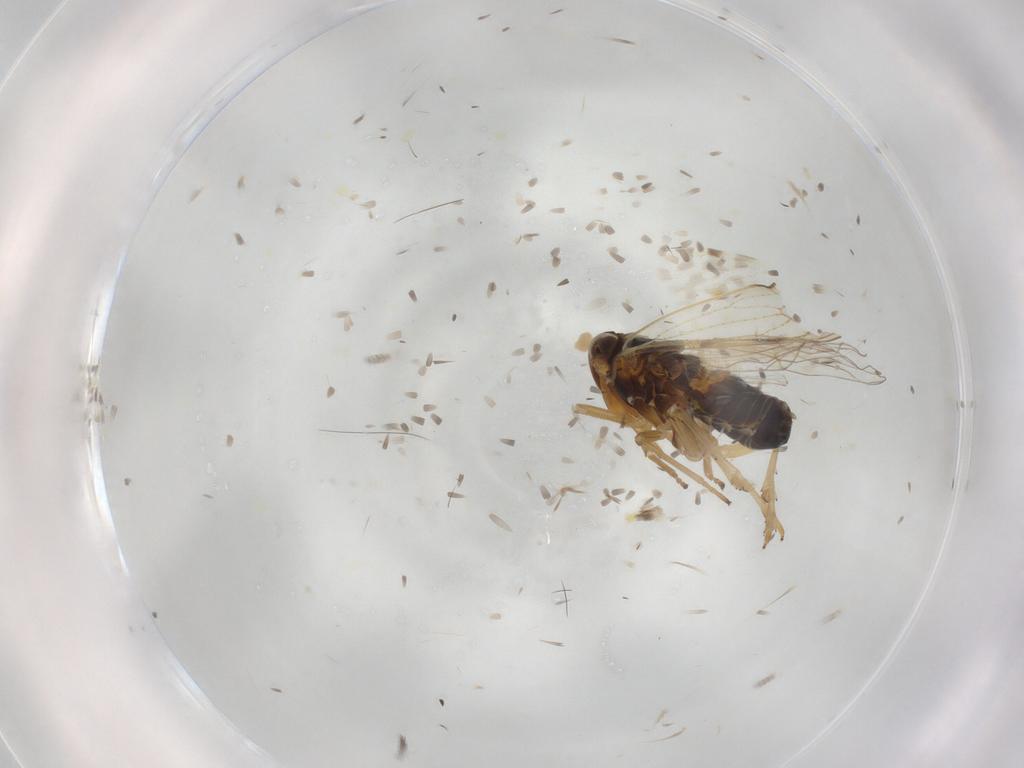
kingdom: Animalia
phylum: Arthropoda
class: Insecta
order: Hemiptera
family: Delphacidae
